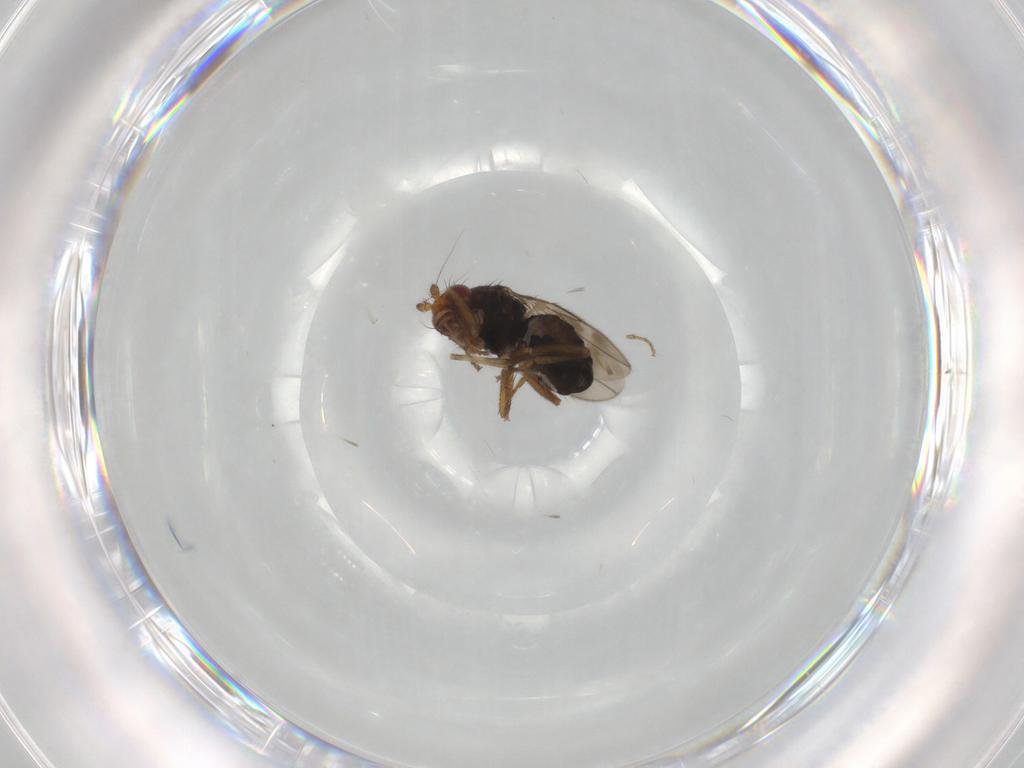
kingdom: Animalia
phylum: Arthropoda
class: Insecta
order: Diptera
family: Sphaeroceridae
